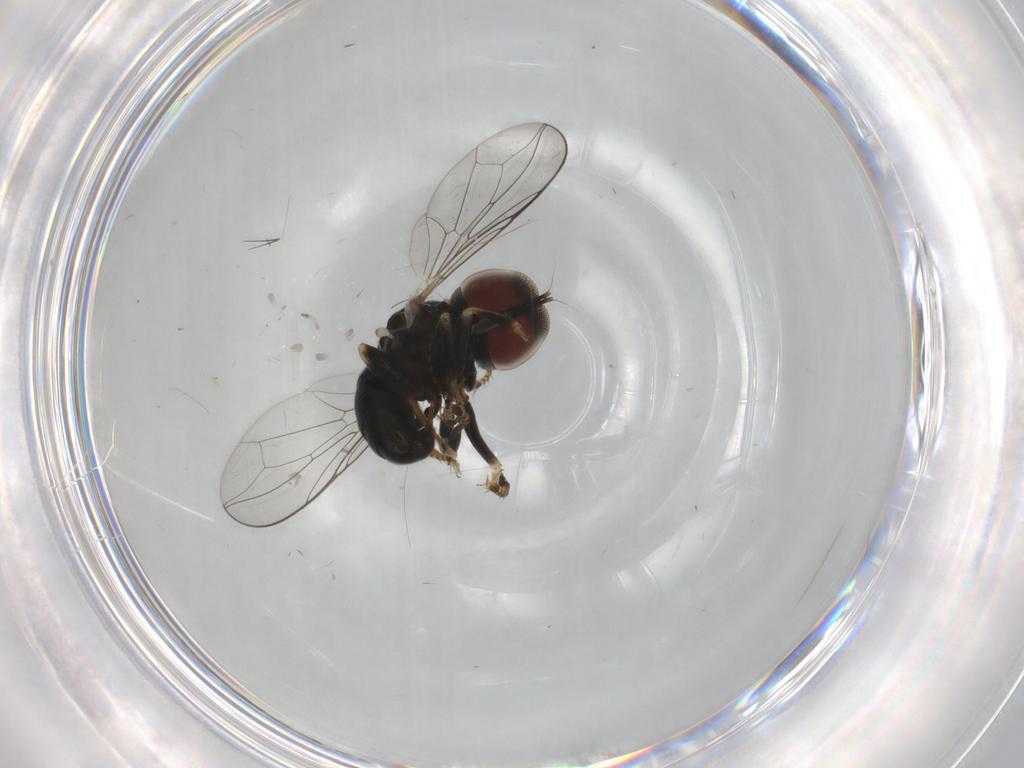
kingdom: Animalia
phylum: Arthropoda
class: Insecta
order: Diptera
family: Pipunculidae
